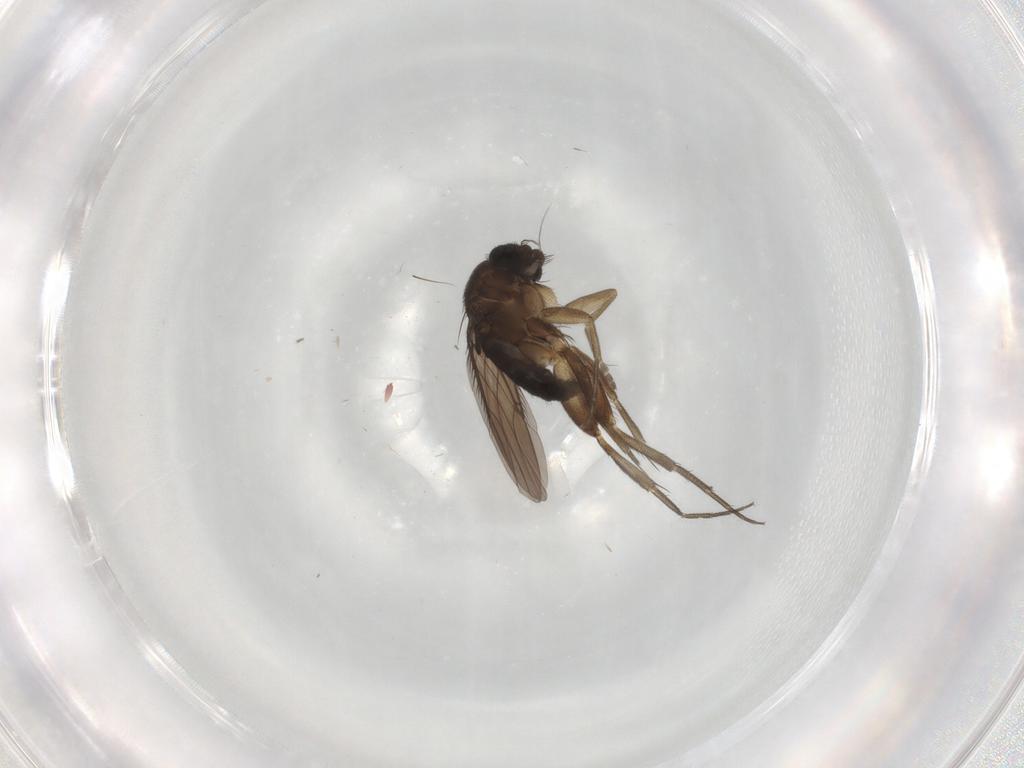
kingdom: Animalia
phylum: Arthropoda
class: Insecta
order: Diptera
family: Phoridae
